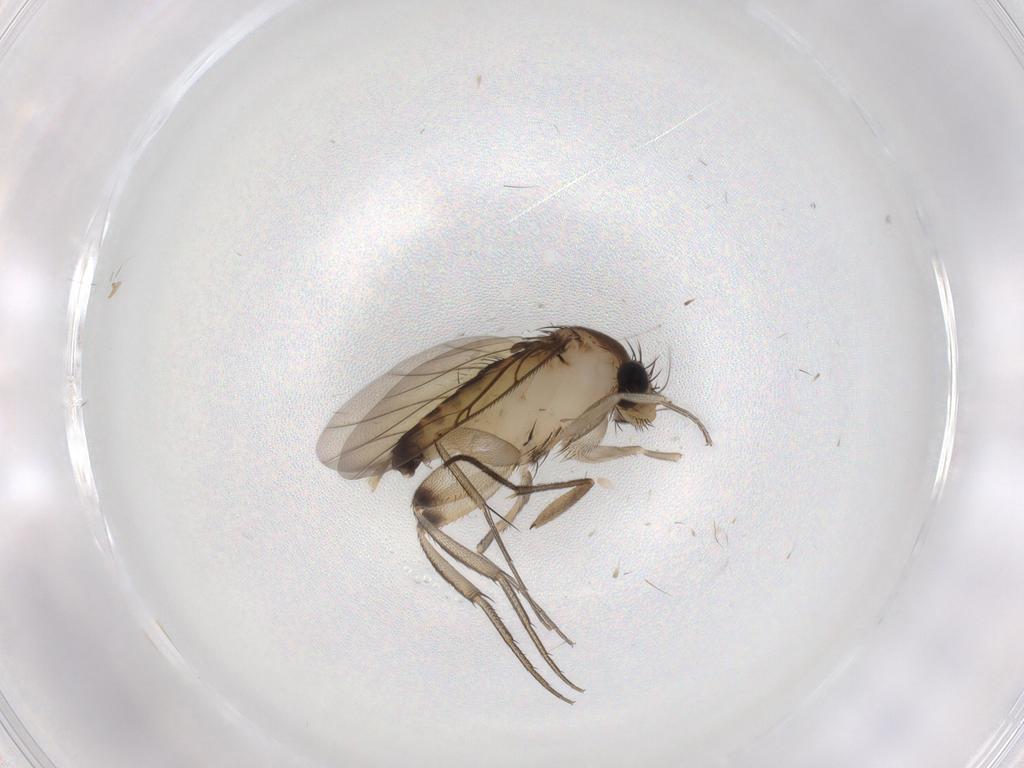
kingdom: Animalia
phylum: Arthropoda
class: Insecta
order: Diptera
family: Phoridae
